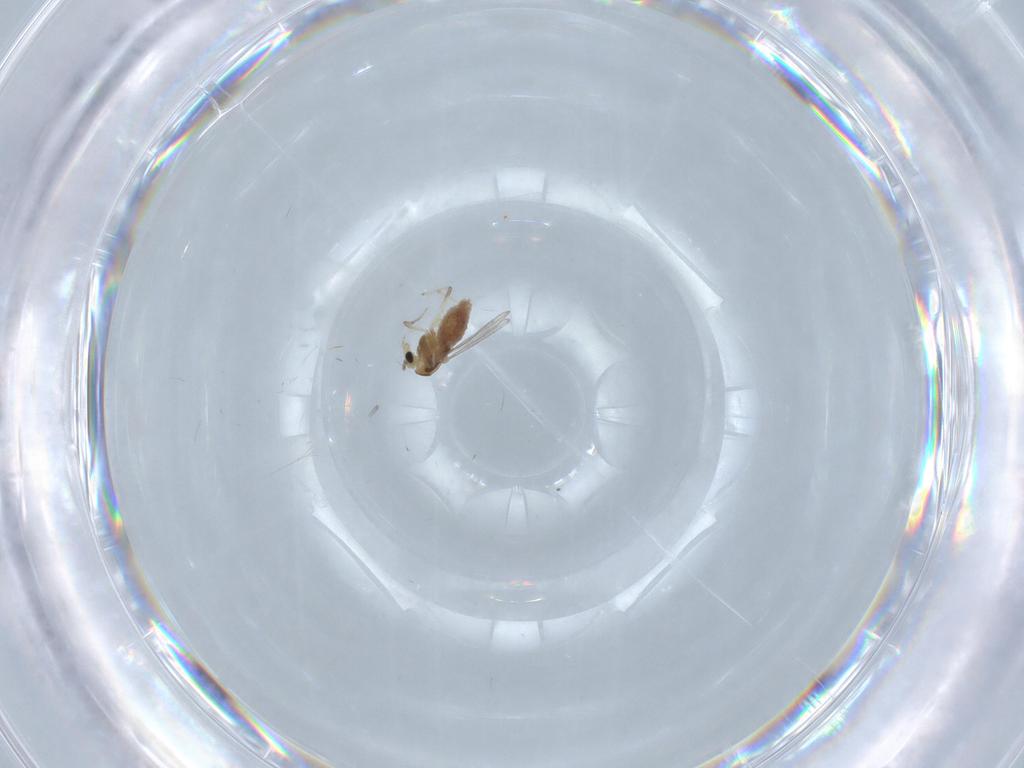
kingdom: Animalia
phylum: Arthropoda
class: Insecta
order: Diptera
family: Chironomidae
